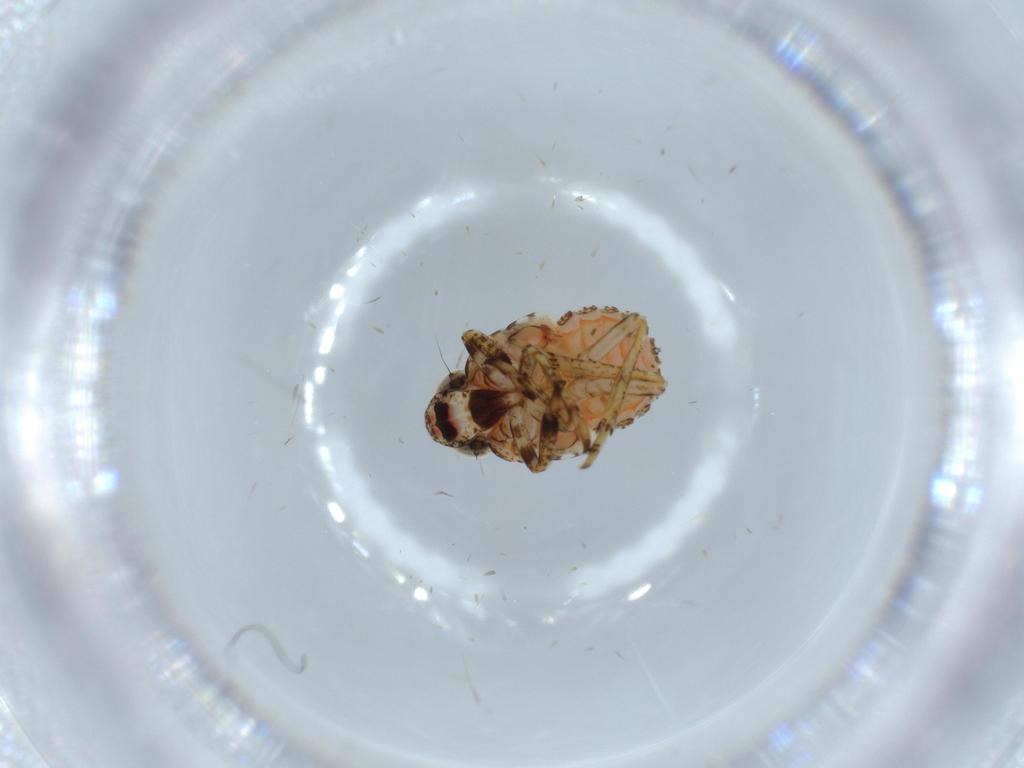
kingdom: Animalia
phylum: Arthropoda
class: Insecta
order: Hemiptera
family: Issidae
